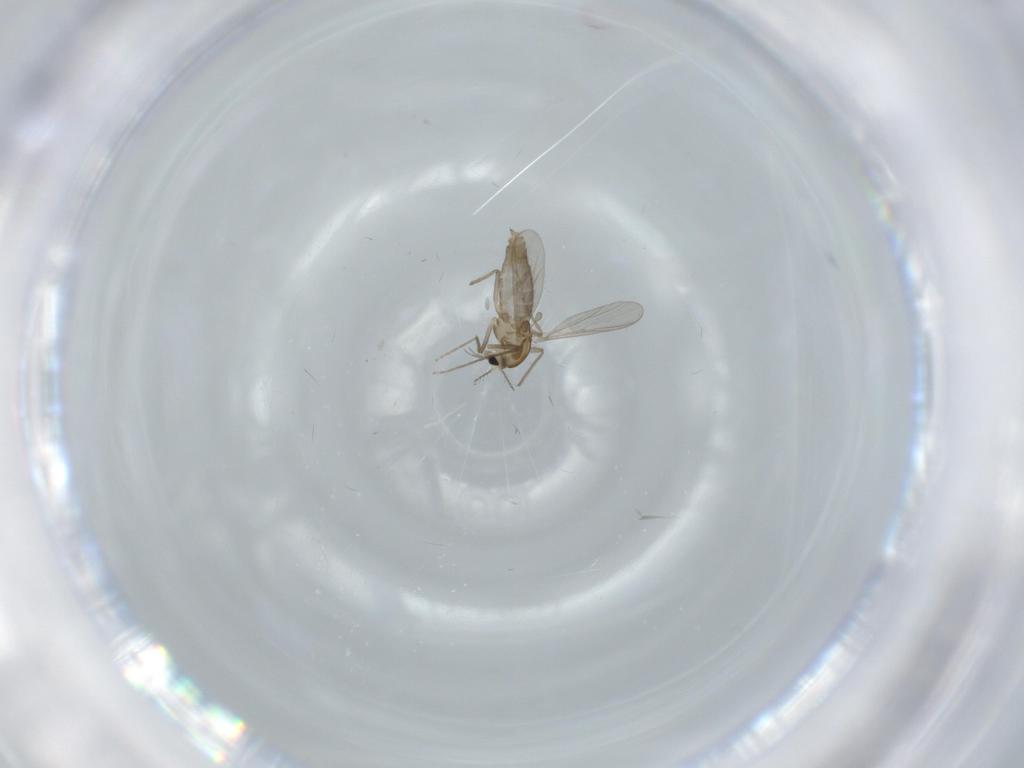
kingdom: Animalia
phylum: Arthropoda
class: Insecta
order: Diptera
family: Chironomidae
